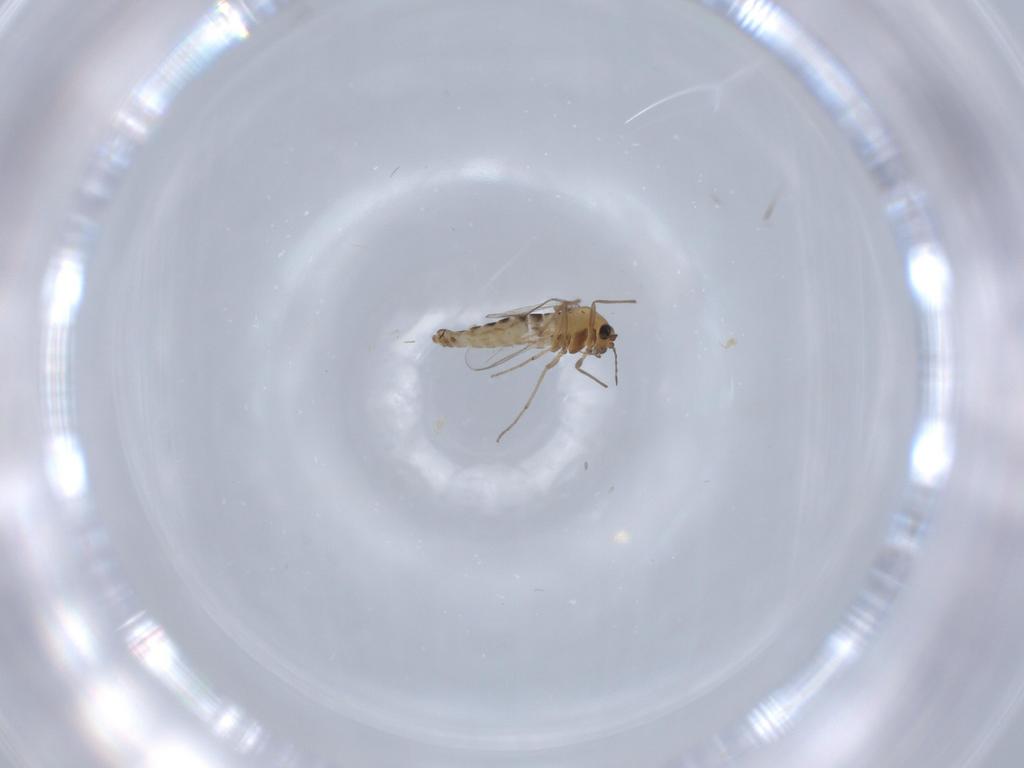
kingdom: Animalia
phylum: Arthropoda
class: Insecta
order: Diptera
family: Chironomidae
